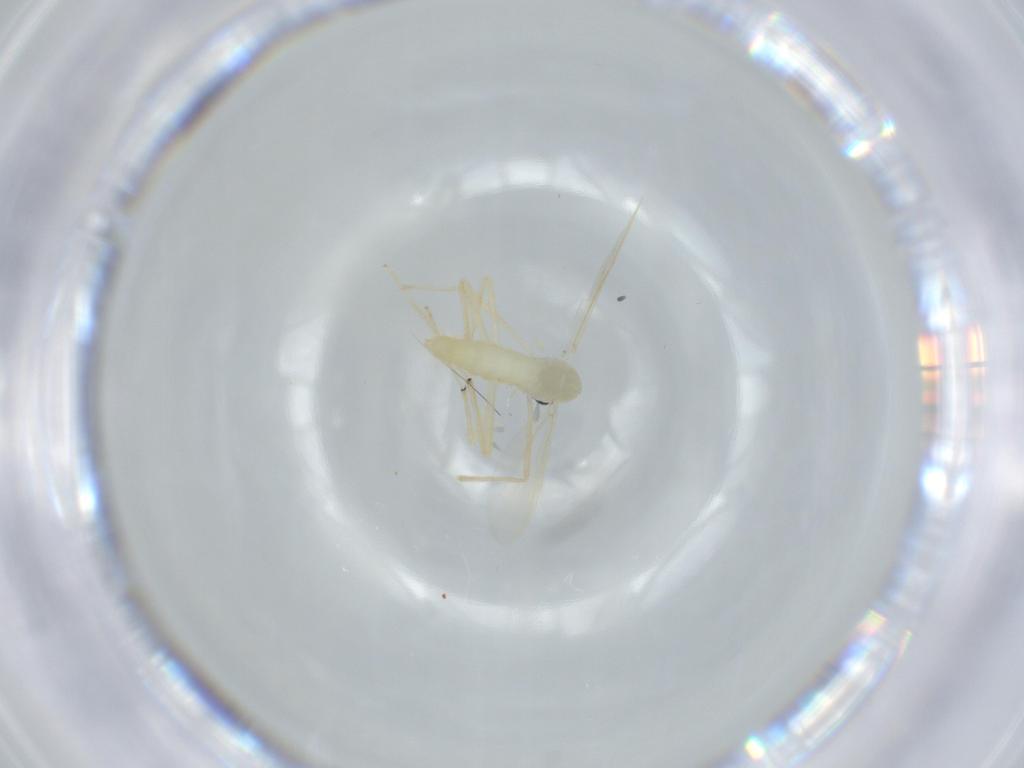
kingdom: Animalia
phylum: Arthropoda
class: Insecta
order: Diptera
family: Chironomidae
